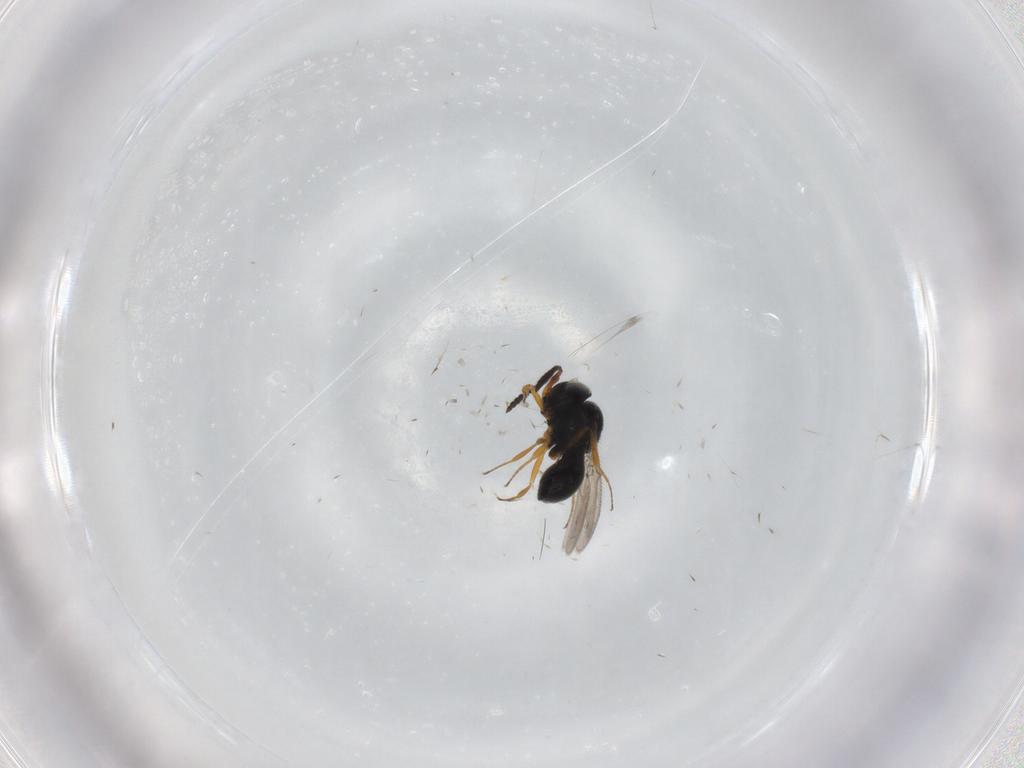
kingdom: Animalia
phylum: Arthropoda
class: Insecta
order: Hymenoptera
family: Scelionidae
